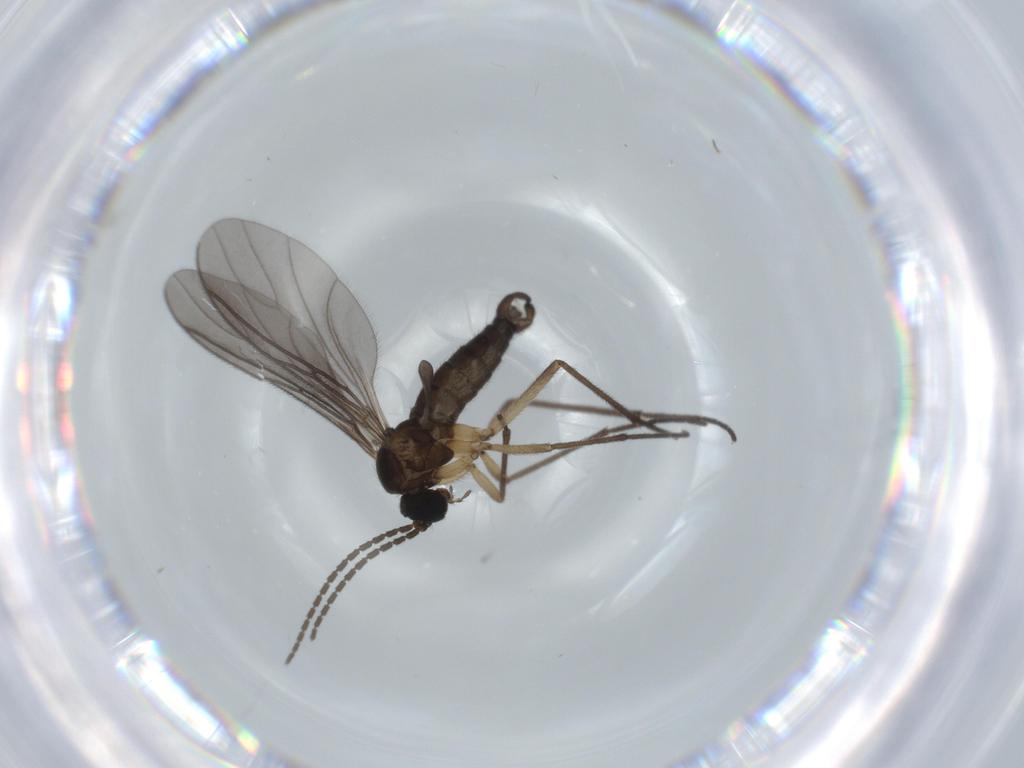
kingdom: Animalia
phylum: Arthropoda
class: Insecta
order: Diptera
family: Sciaridae
